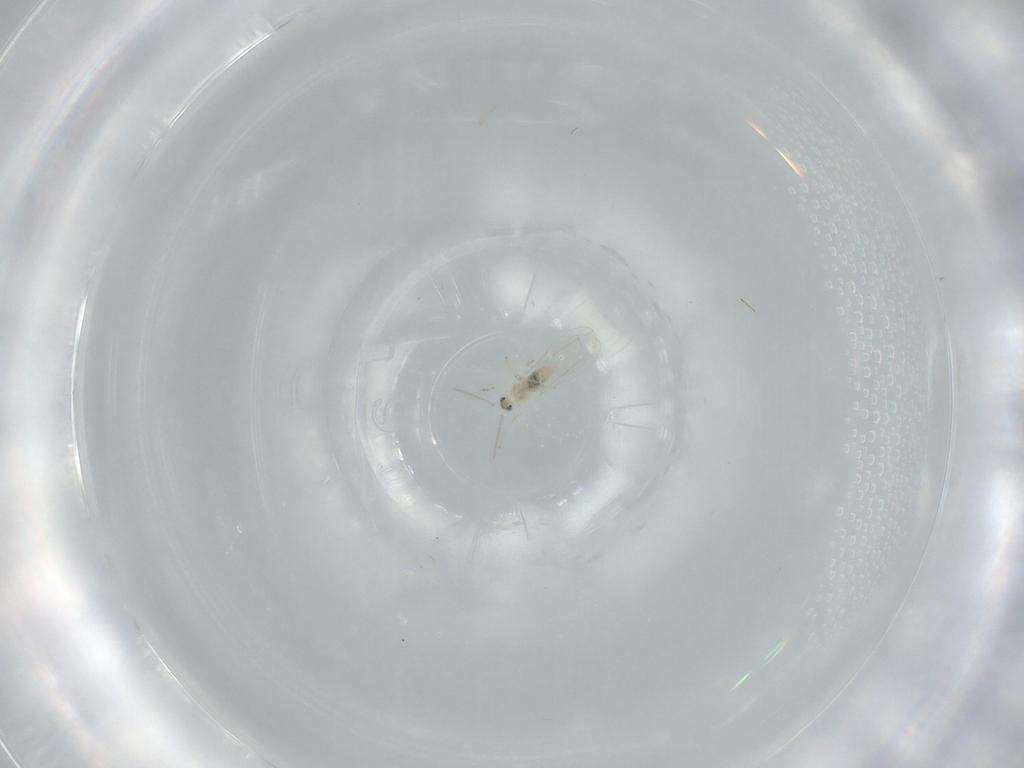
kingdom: Animalia
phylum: Arthropoda
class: Insecta
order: Diptera
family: Cecidomyiidae
